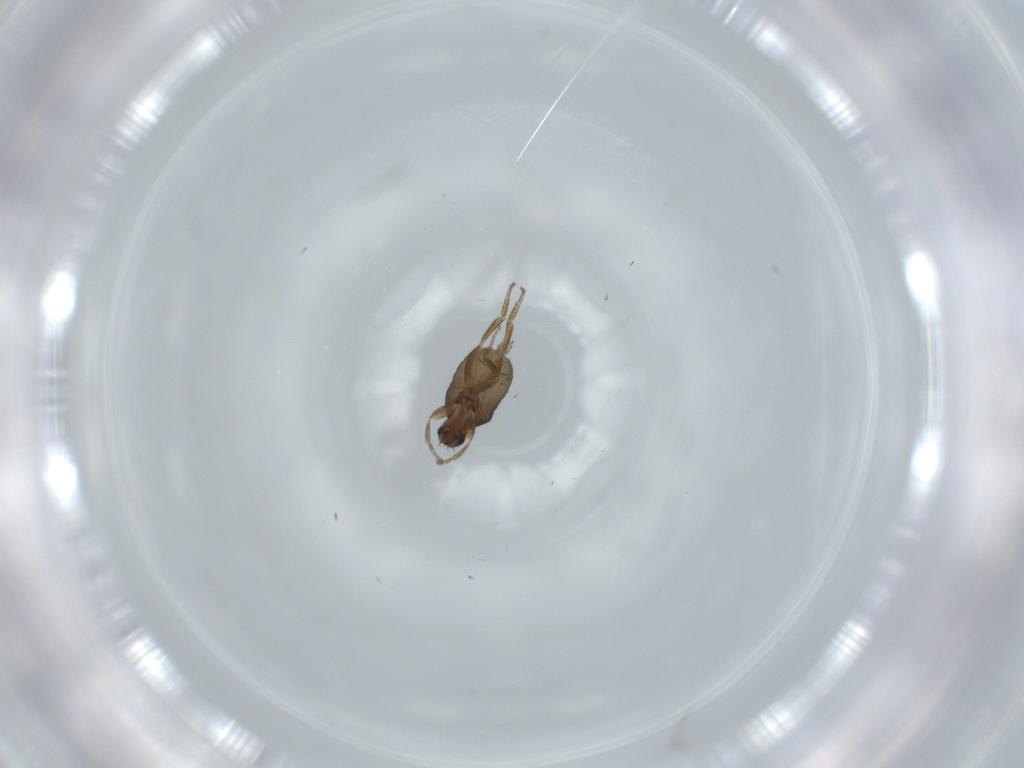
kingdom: Animalia
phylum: Arthropoda
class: Insecta
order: Diptera
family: Phoridae
